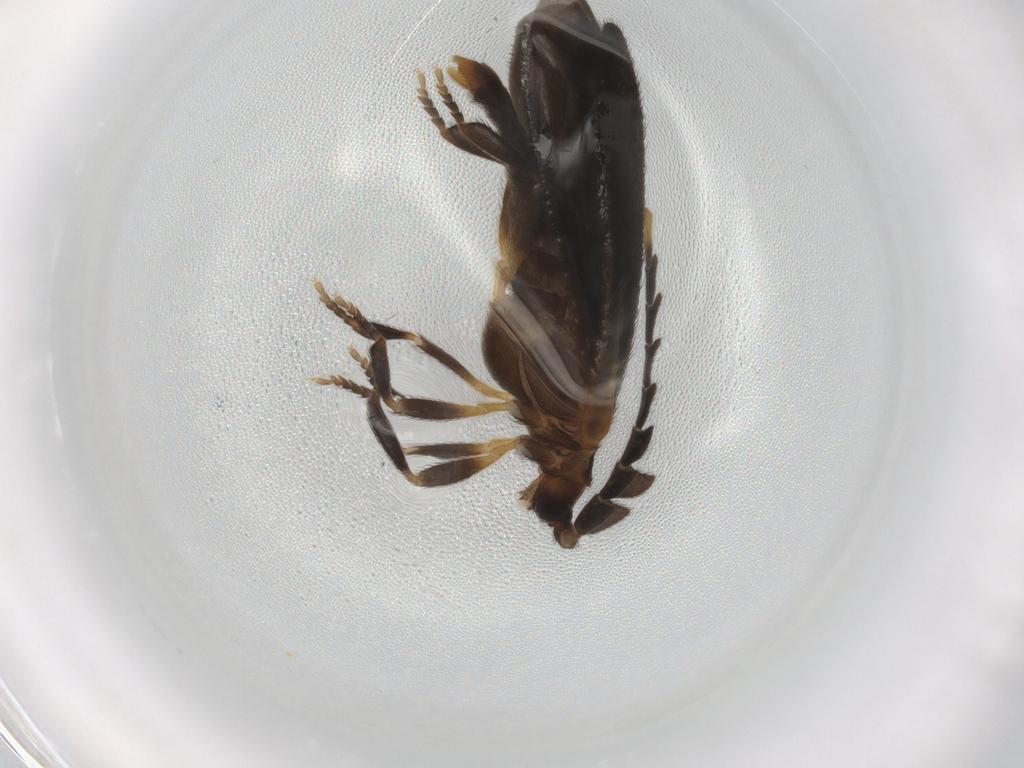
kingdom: Animalia
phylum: Arthropoda
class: Insecta
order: Coleoptera
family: Lycidae
